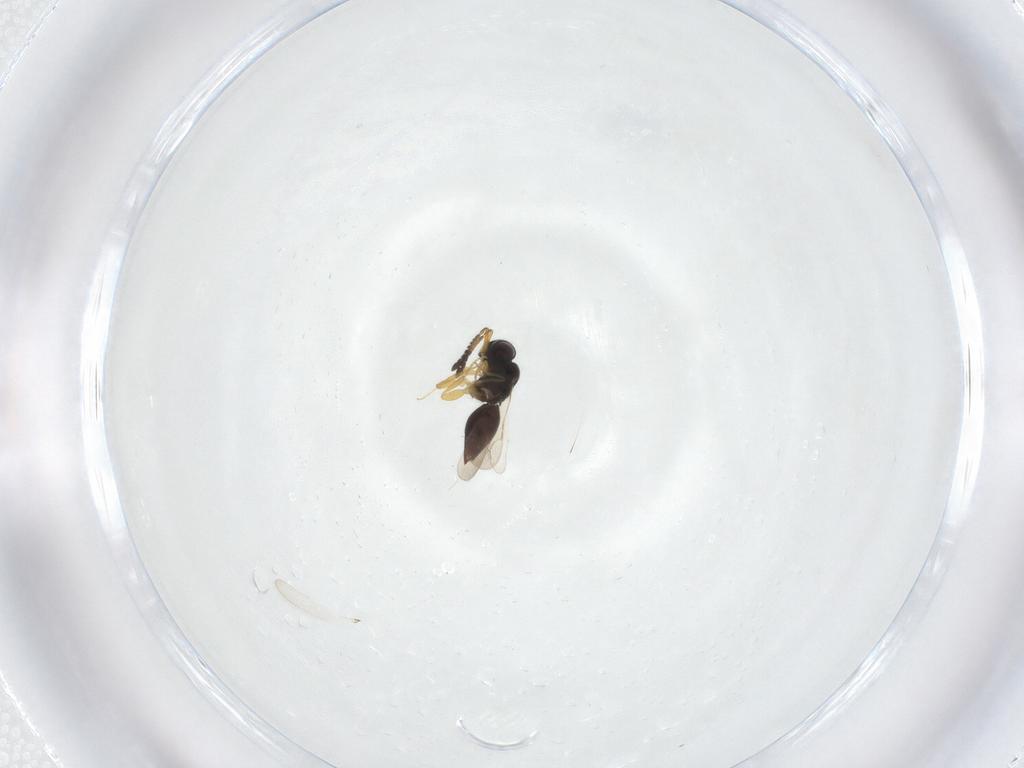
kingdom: Animalia
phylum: Arthropoda
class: Insecta
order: Hymenoptera
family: Ceraphronidae
